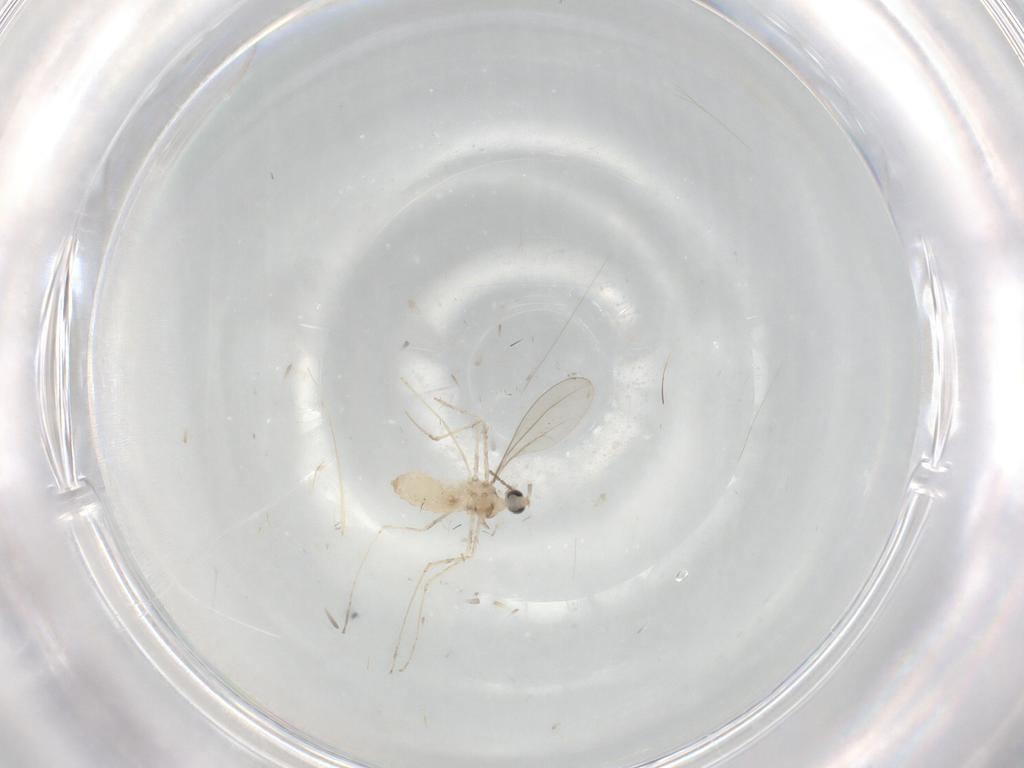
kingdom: Animalia
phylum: Arthropoda
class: Insecta
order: Diptera
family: Cecidomyiidae
